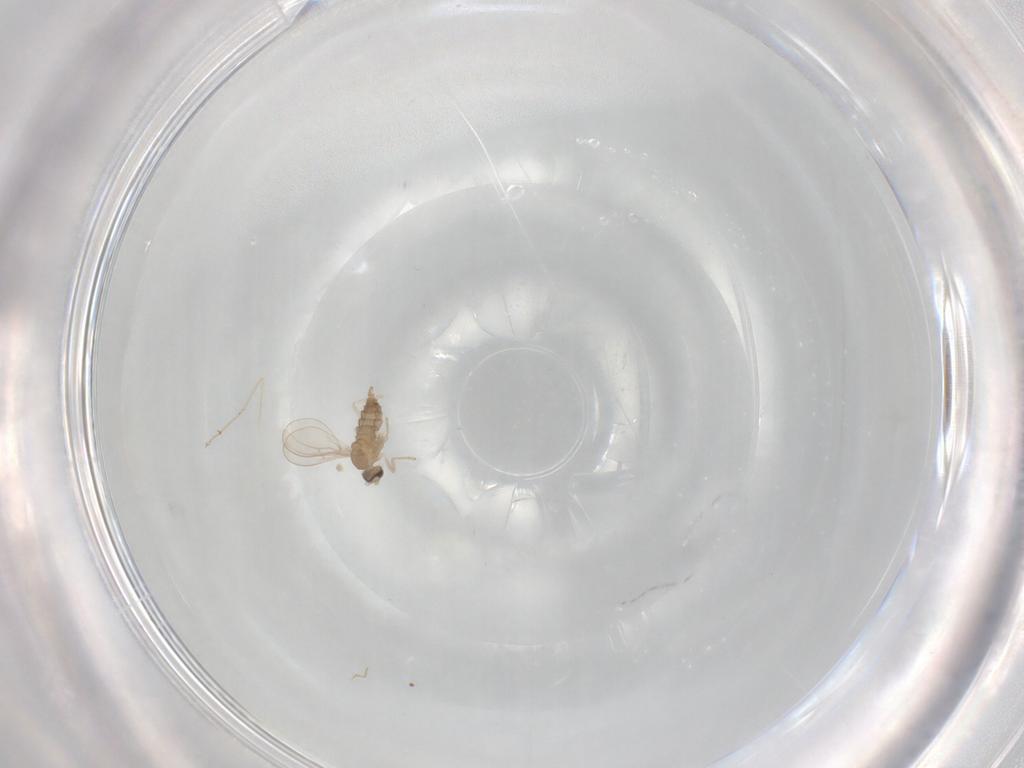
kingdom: Animalia
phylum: Arthropoda
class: Insecta
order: Diptera
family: Cecidomyiidae
